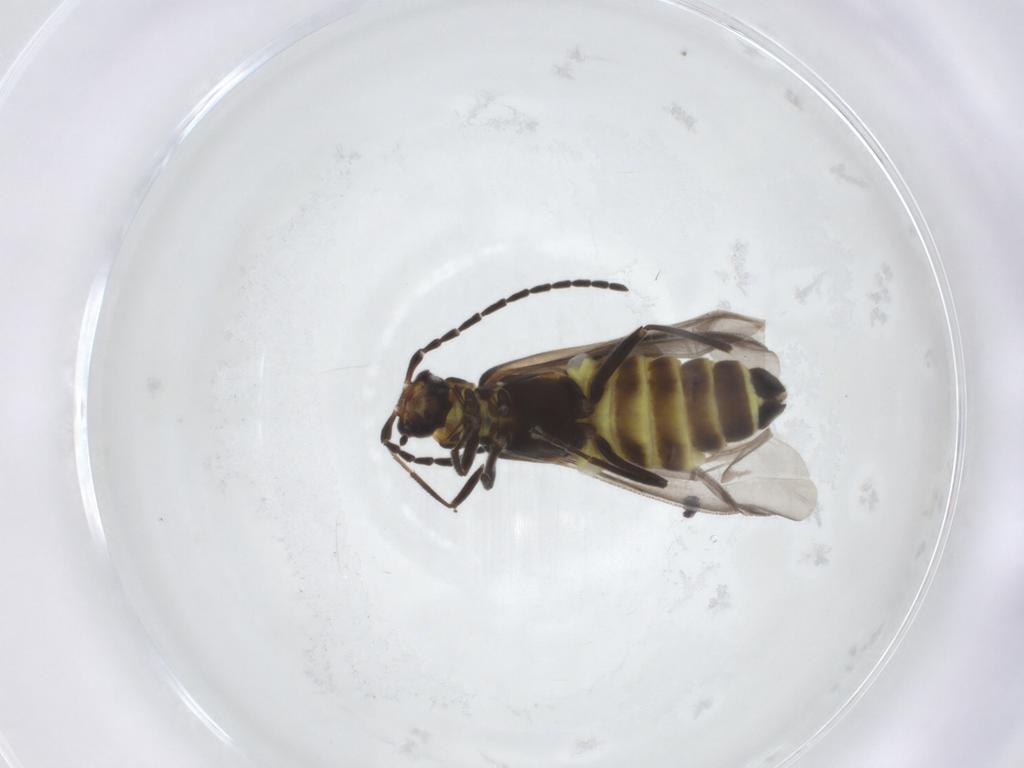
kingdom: Animalia
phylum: Arthropoda
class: Insecta
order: Coleoptera
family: Cantharidae
